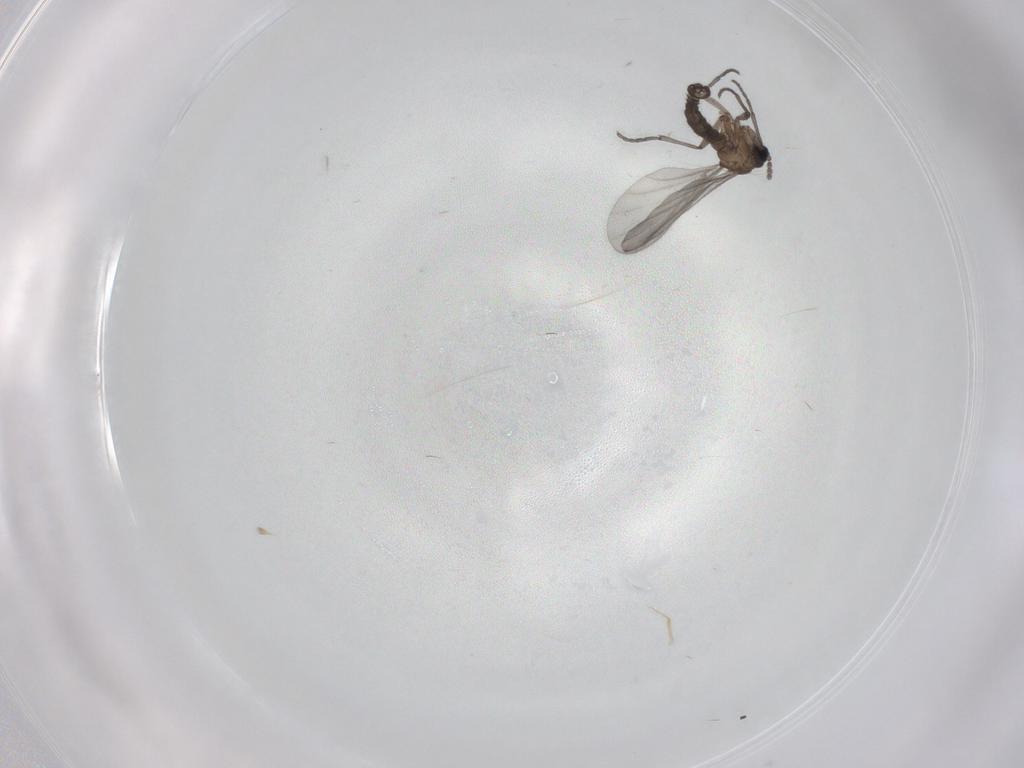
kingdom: Animalia
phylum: Arthropoda
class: Insecta
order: Diptera
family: Sciaridae
